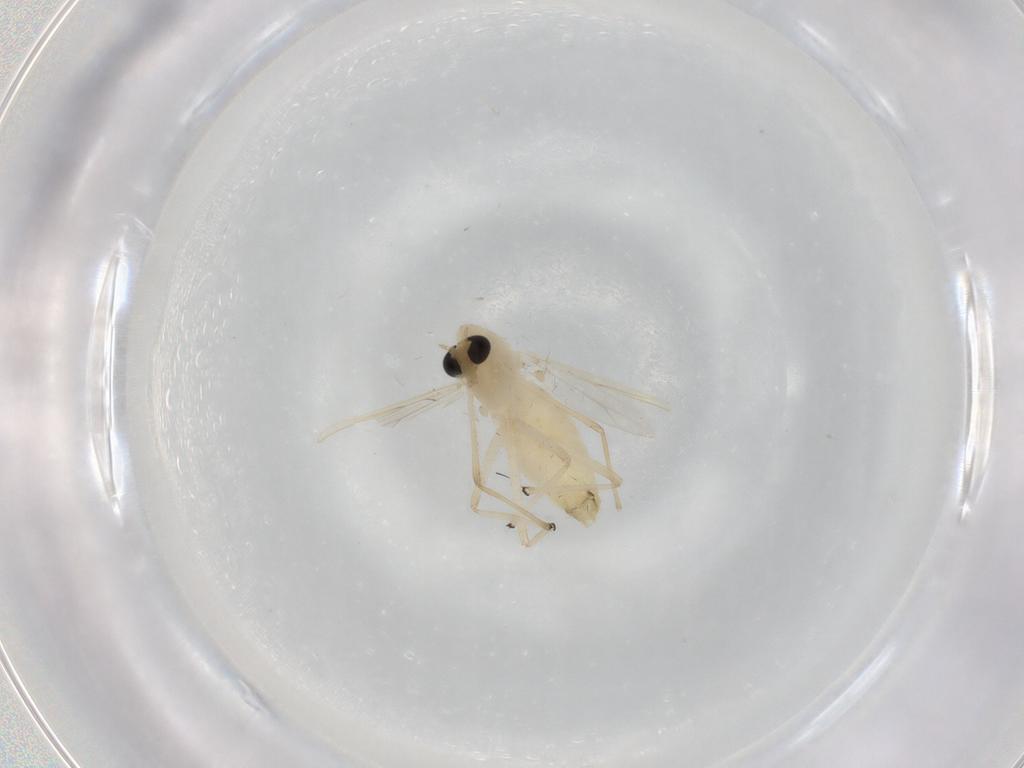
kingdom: Animalia
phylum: Arthropoda
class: Insecta
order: Diptera
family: Chironomidae
